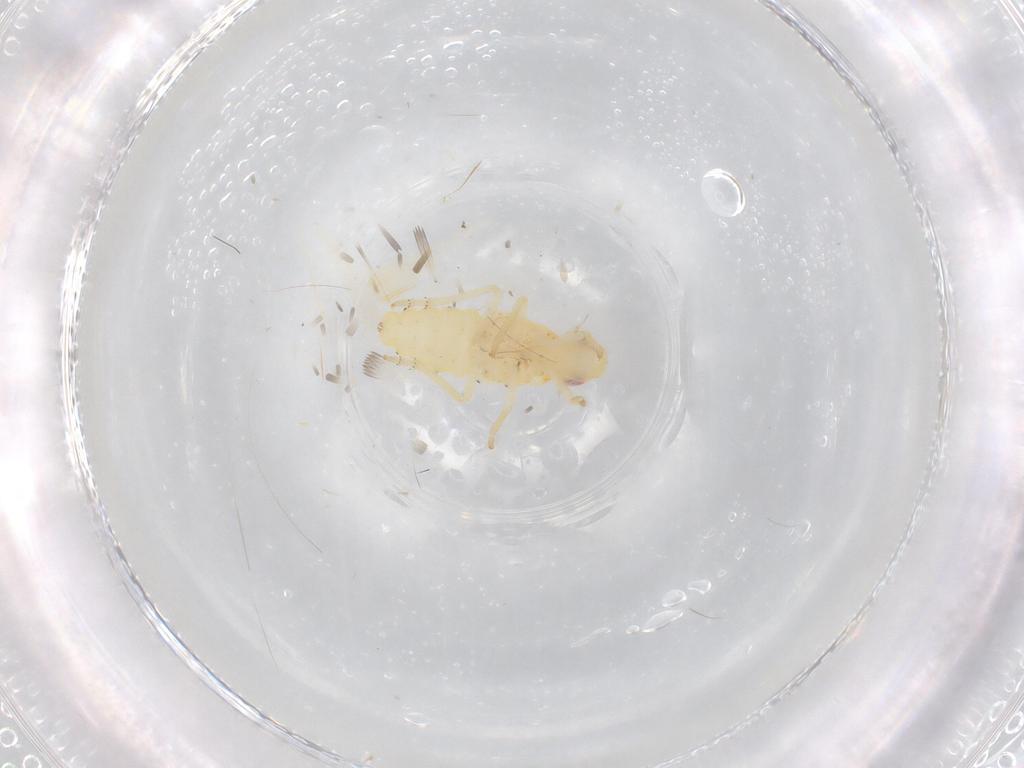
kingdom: Animalia
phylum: Arthropoda
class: Insecta
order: Hemiptera
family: Tropiduchidae
